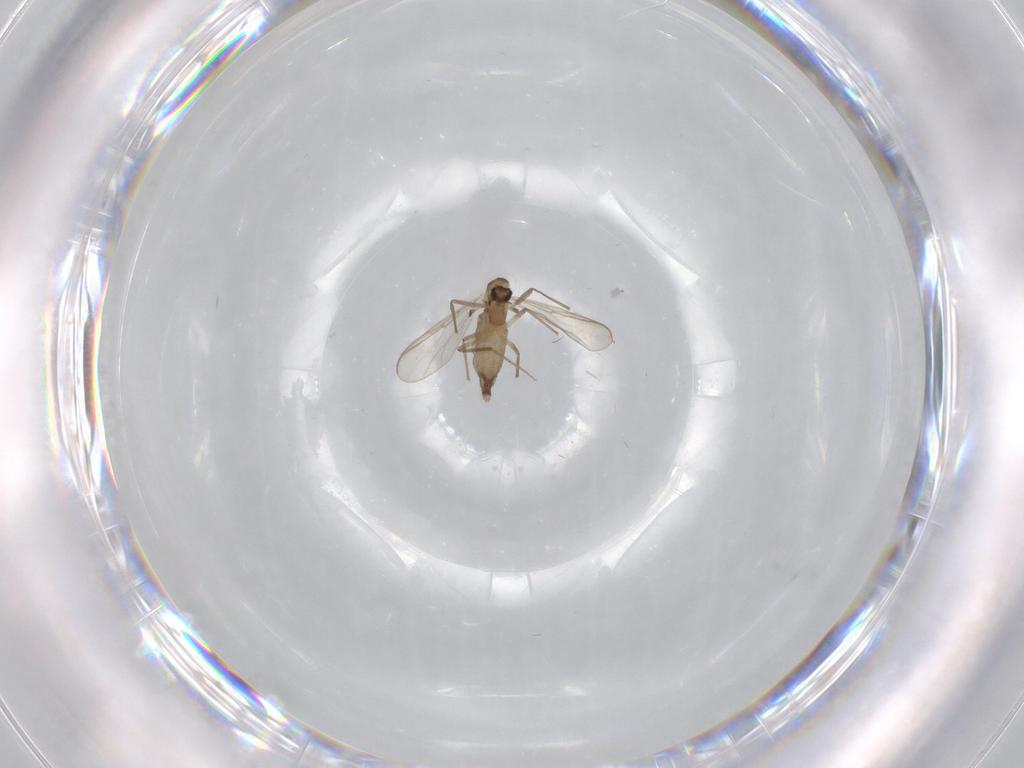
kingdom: Animalia
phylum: Arthropoda
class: Insecta
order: Diptera
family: Chironomidae
